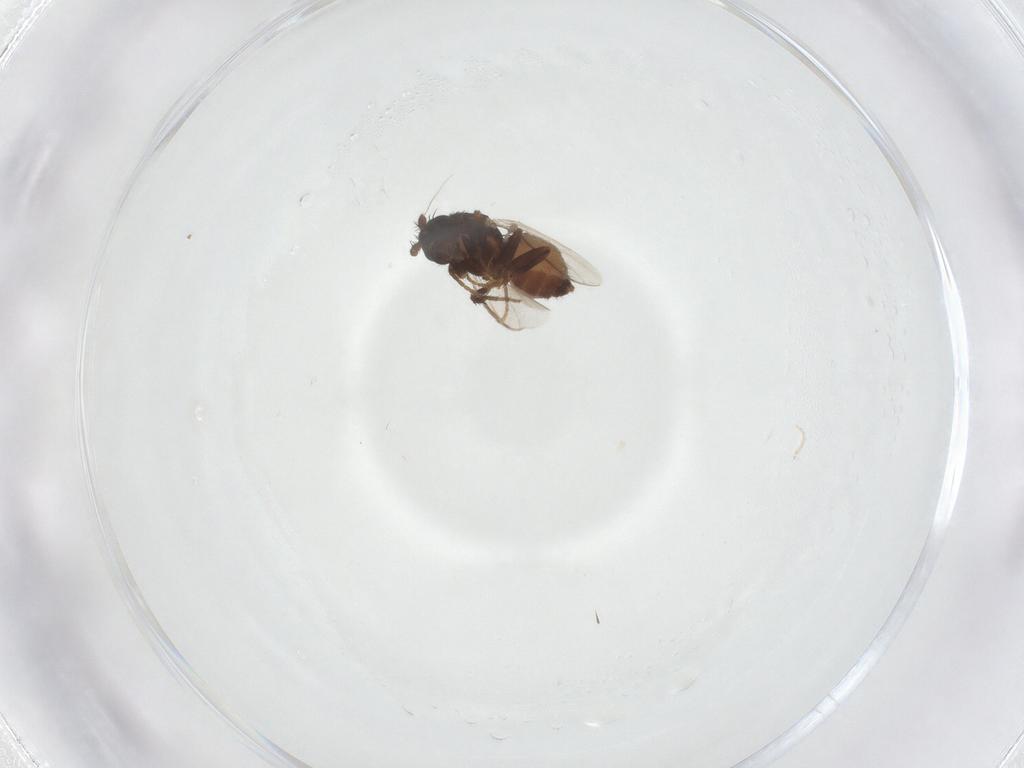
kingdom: Animalia
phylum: Arthropoda
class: Insecta
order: Diptera
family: Sphaeroceridae
